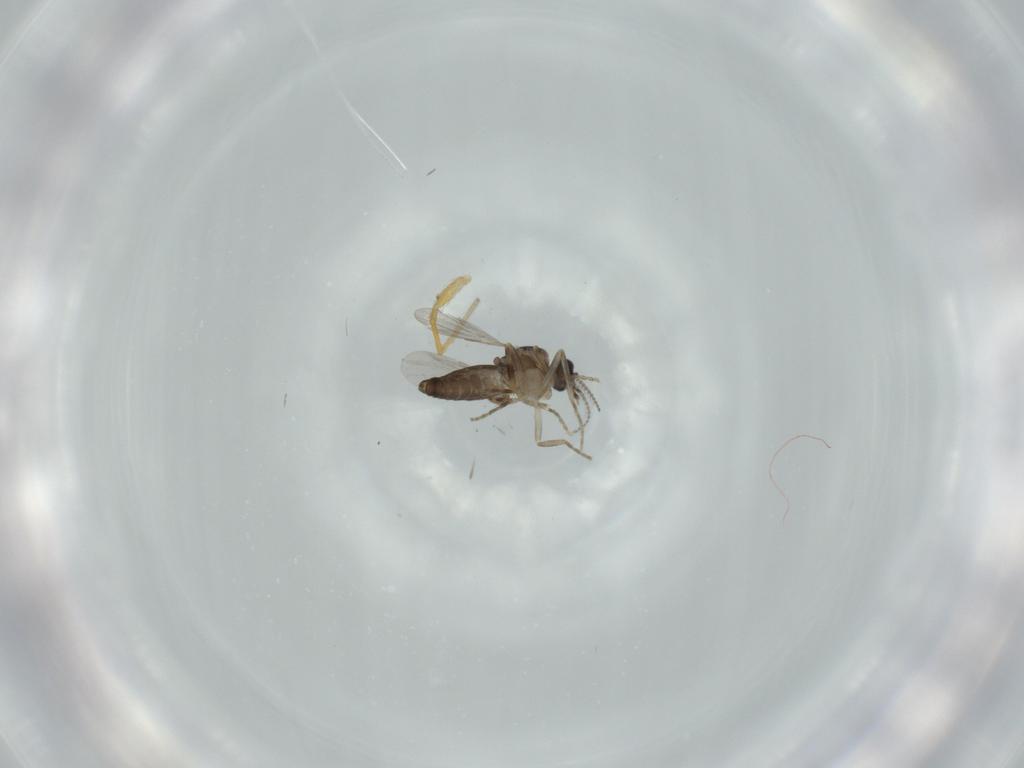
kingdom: Animalia
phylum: Arthropoda
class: Insecta
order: Diptera
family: Ceratopogonidae
